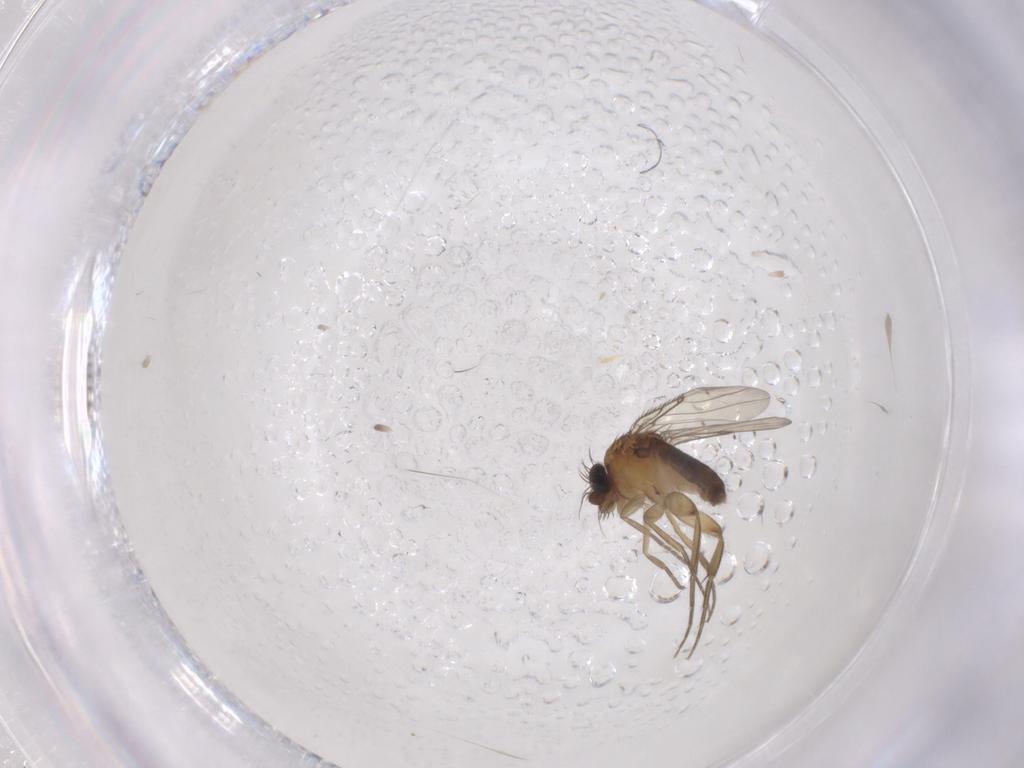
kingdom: Animalia
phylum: Arthropoda
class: Insecta
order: Diptera
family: Phoridae
